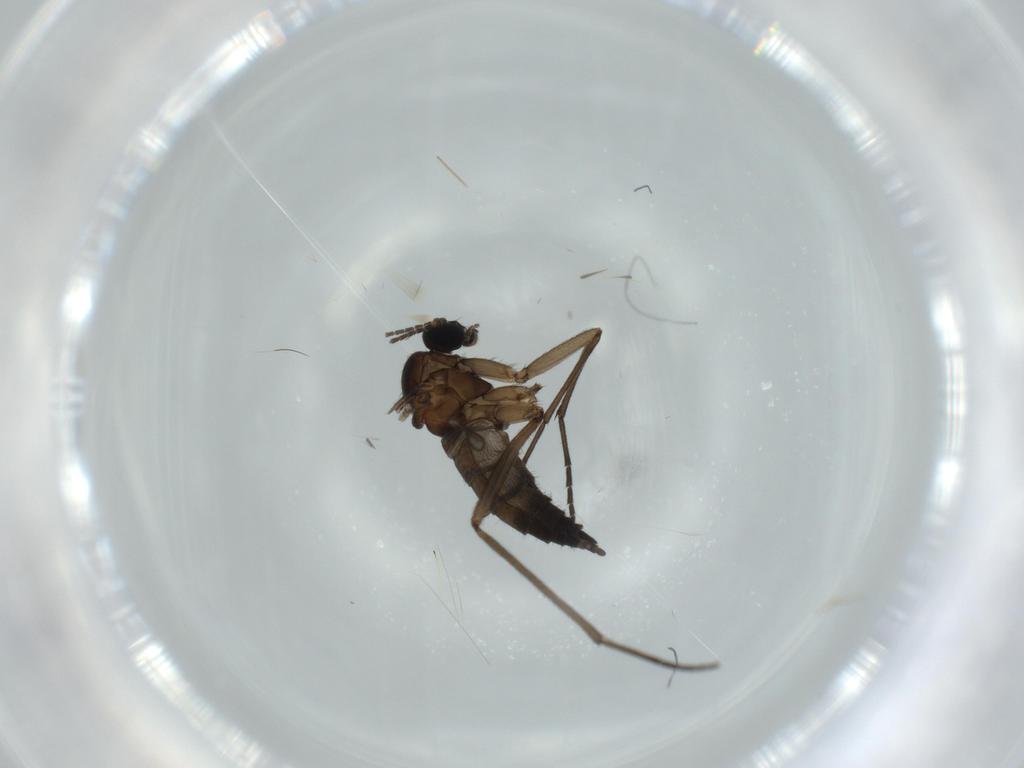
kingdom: Animalia
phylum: Arthropoda
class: Insecta
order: Diptera
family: Sciaridae
